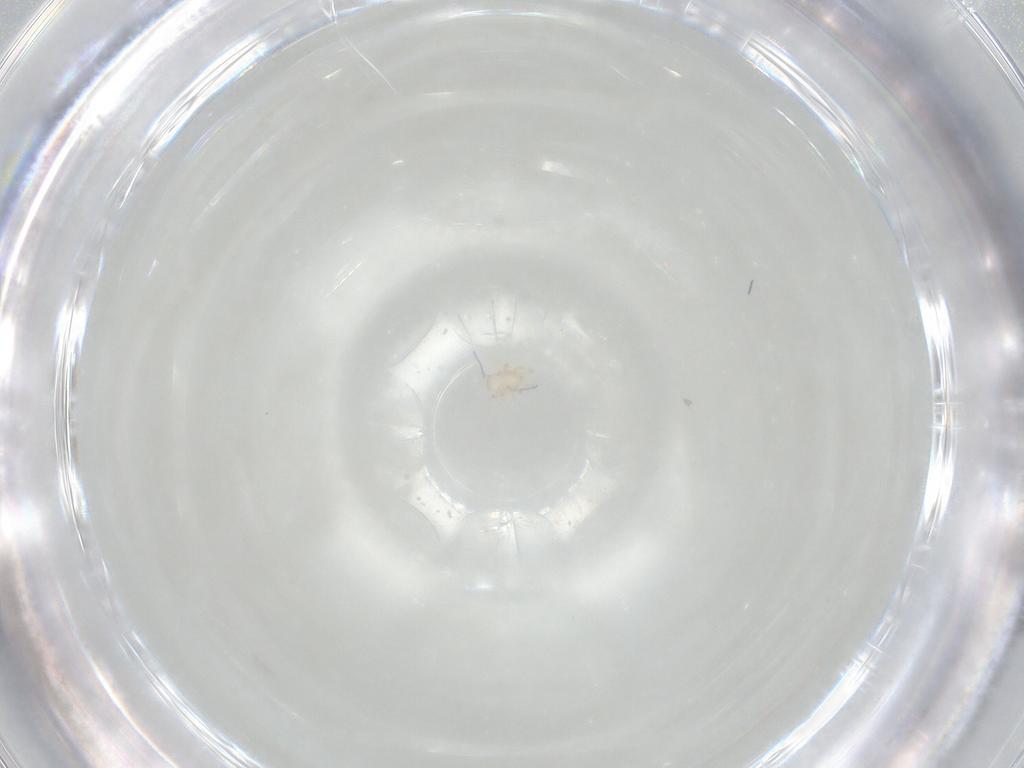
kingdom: Animalia
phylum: Arthropoda
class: Arachnida
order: Mesostigmata
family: Halolaelapidae
